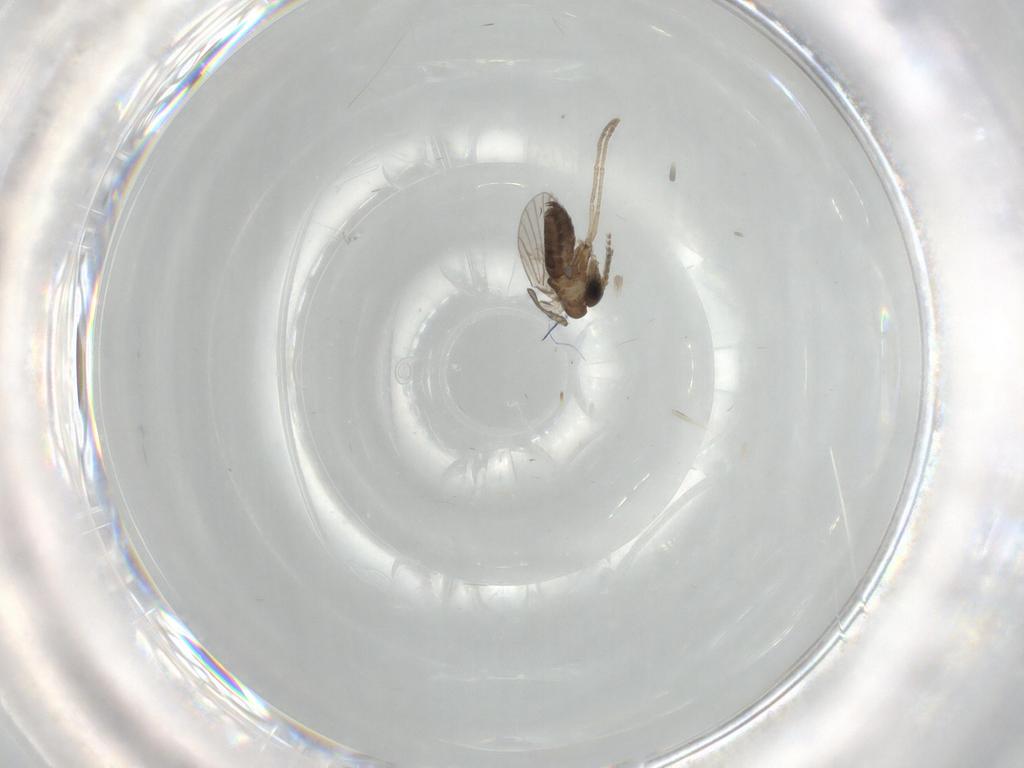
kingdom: Animalia
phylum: Arthropoda
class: Insecta
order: Diptera
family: Psychodidae
